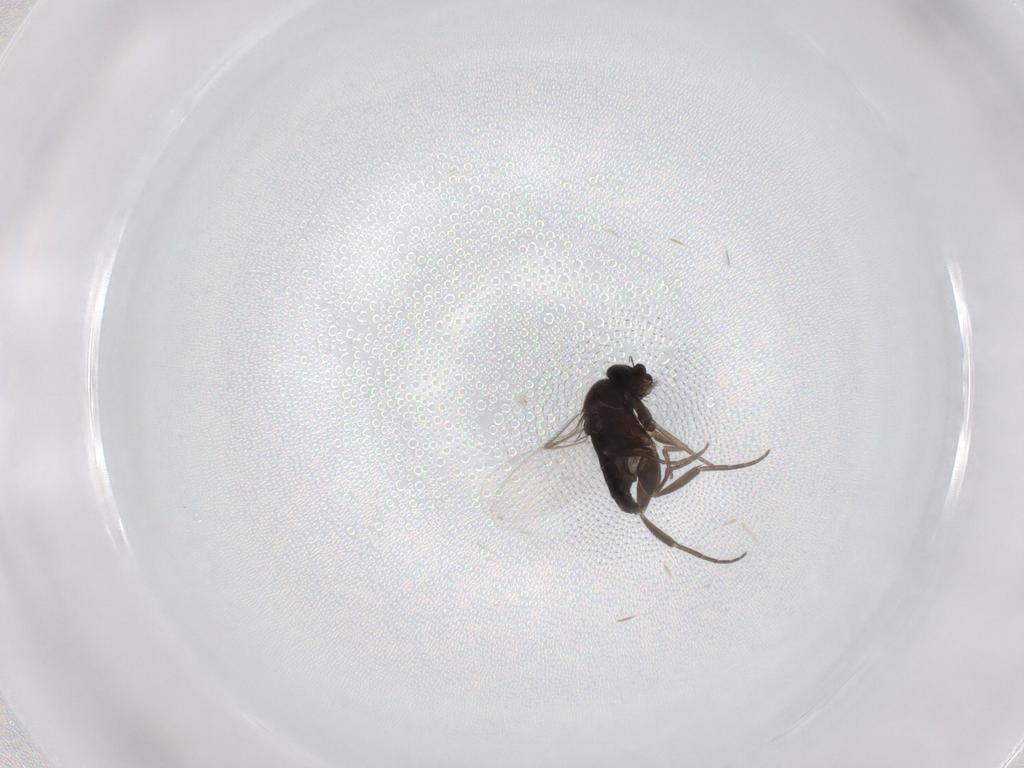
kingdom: Animalia
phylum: Arthropoda
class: Insecta
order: Diptera
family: Phoridae
